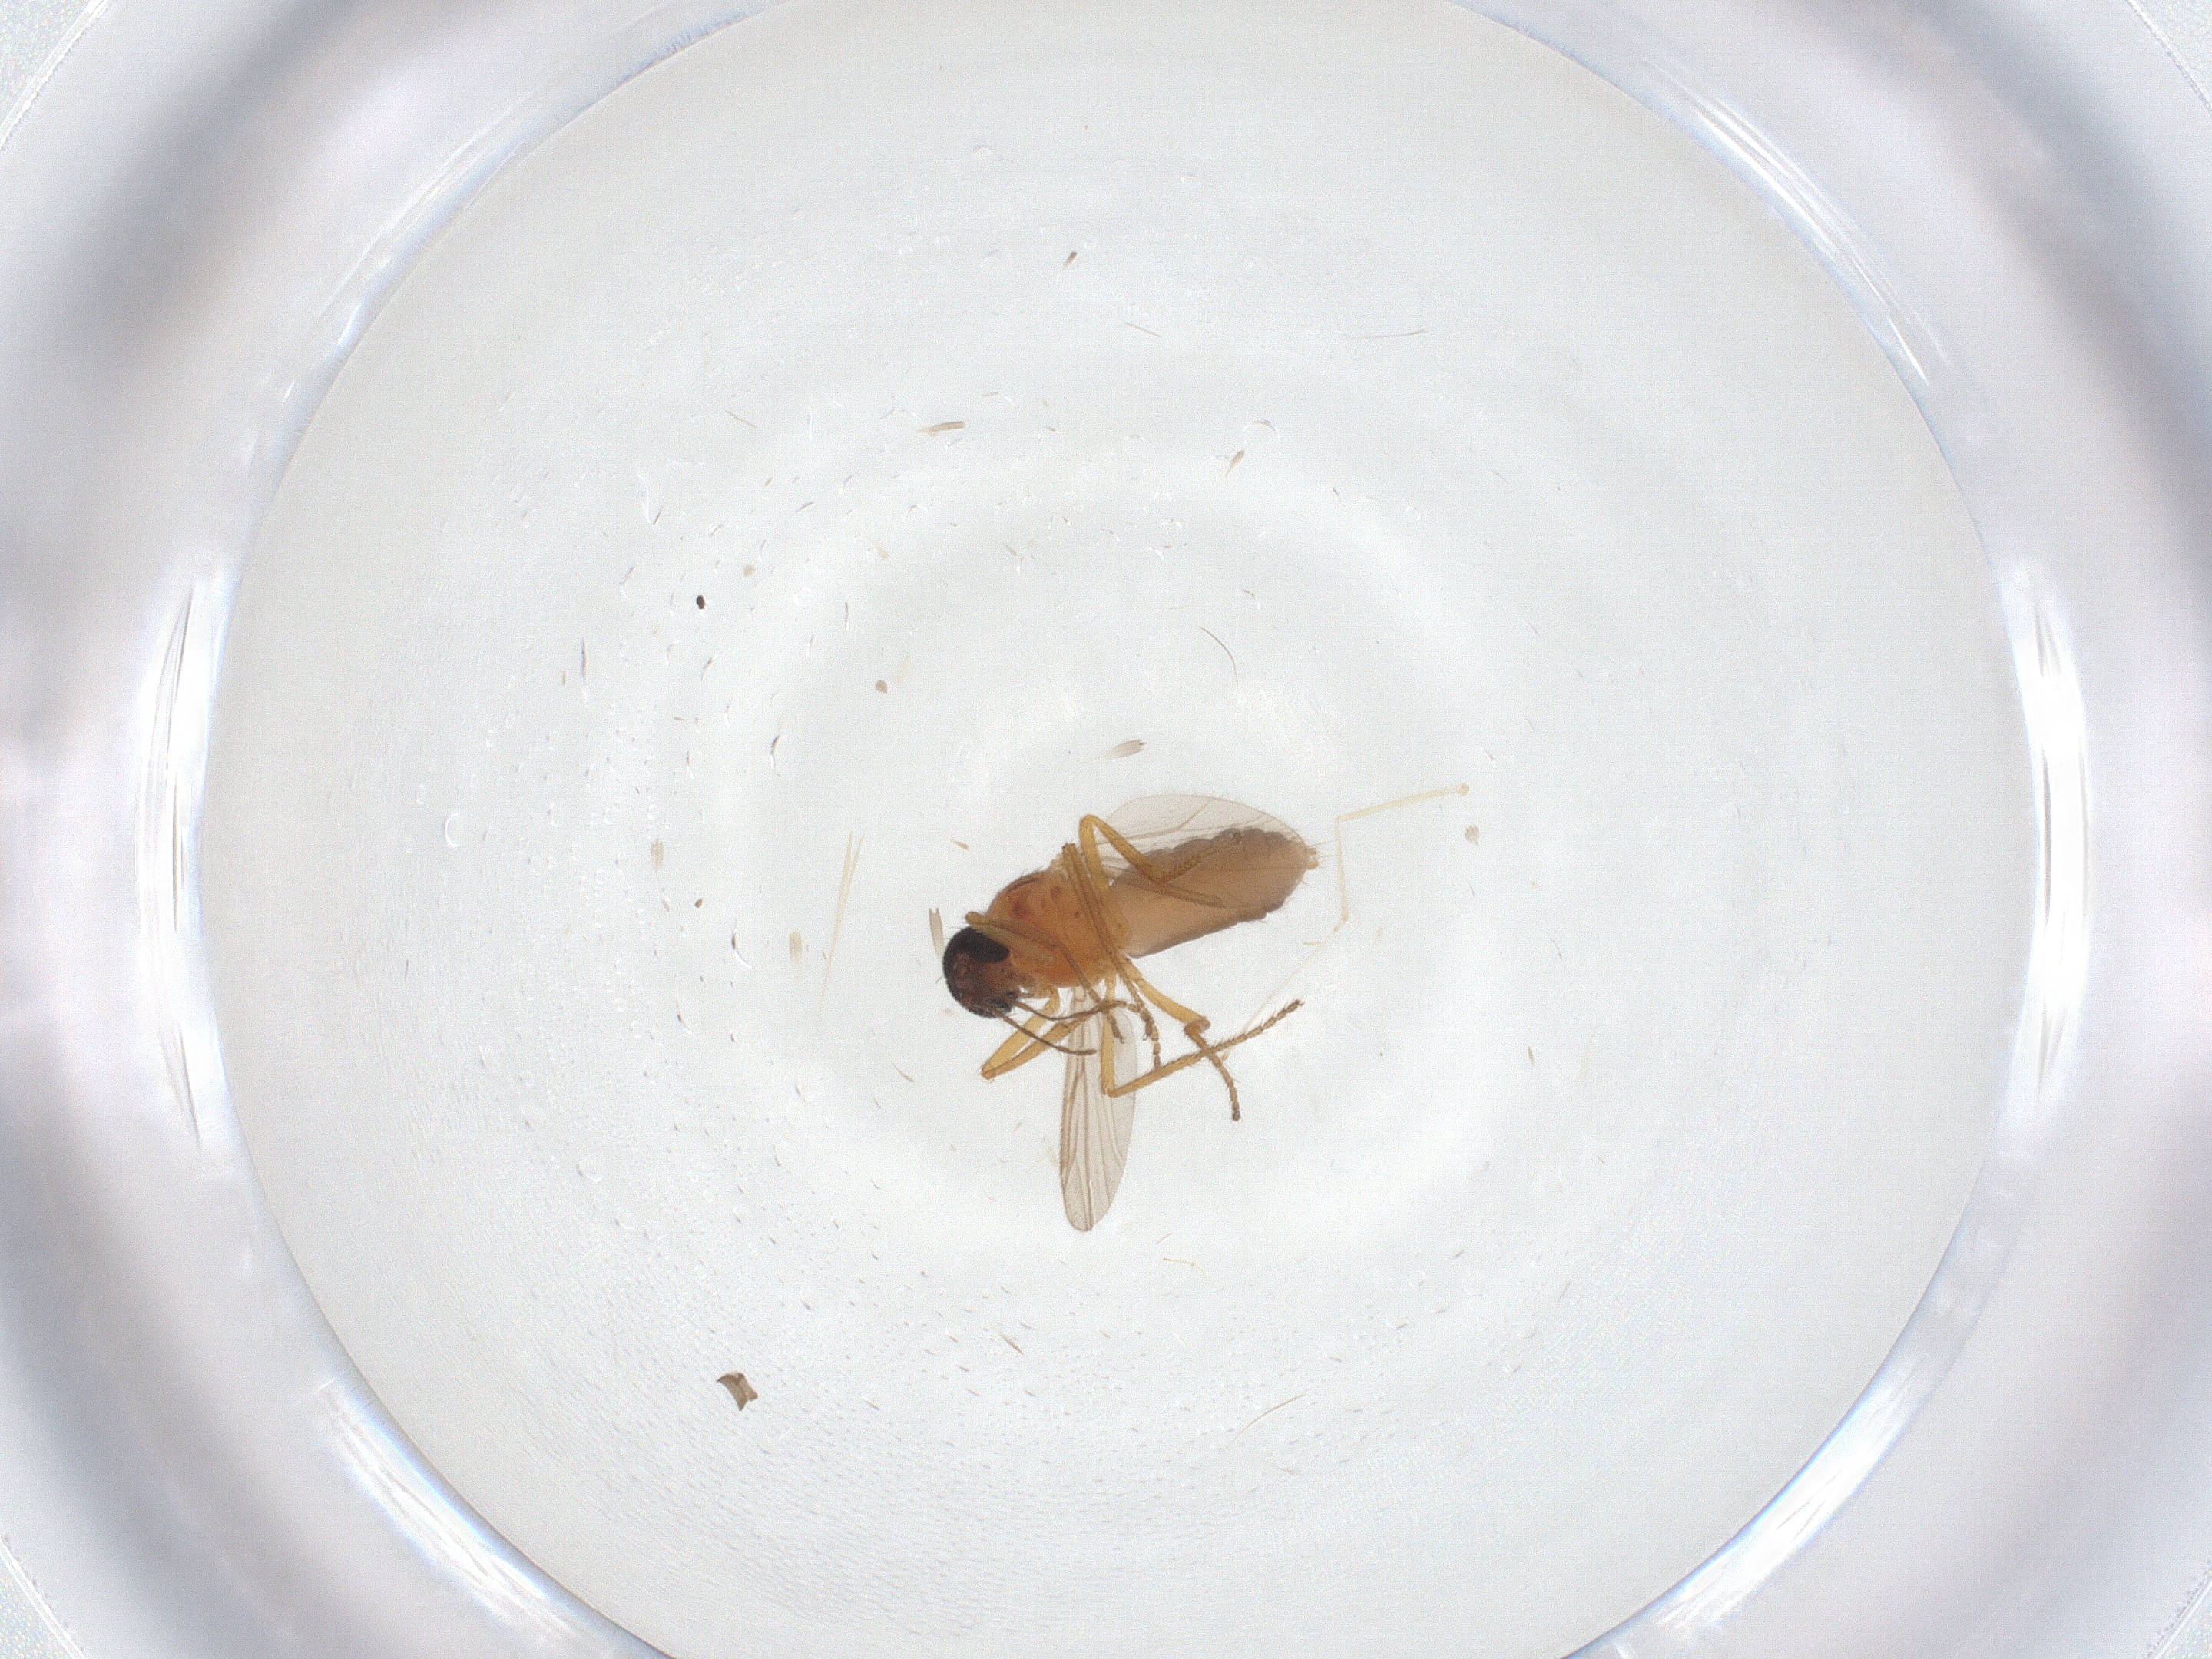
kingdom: Animalia
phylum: Arthropoda
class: Insecta
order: Diptera
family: Ceratopogonidae
